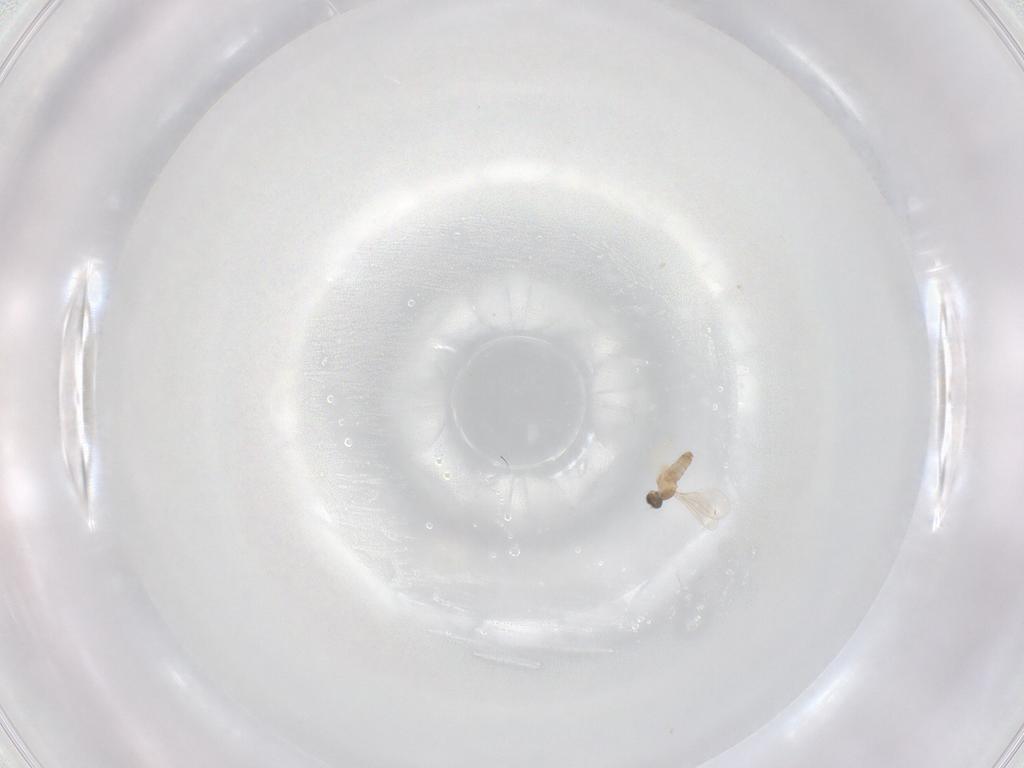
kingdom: Animalia
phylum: Arthropoda
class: Insecta
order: Diptera
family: Cecidomyiidae
